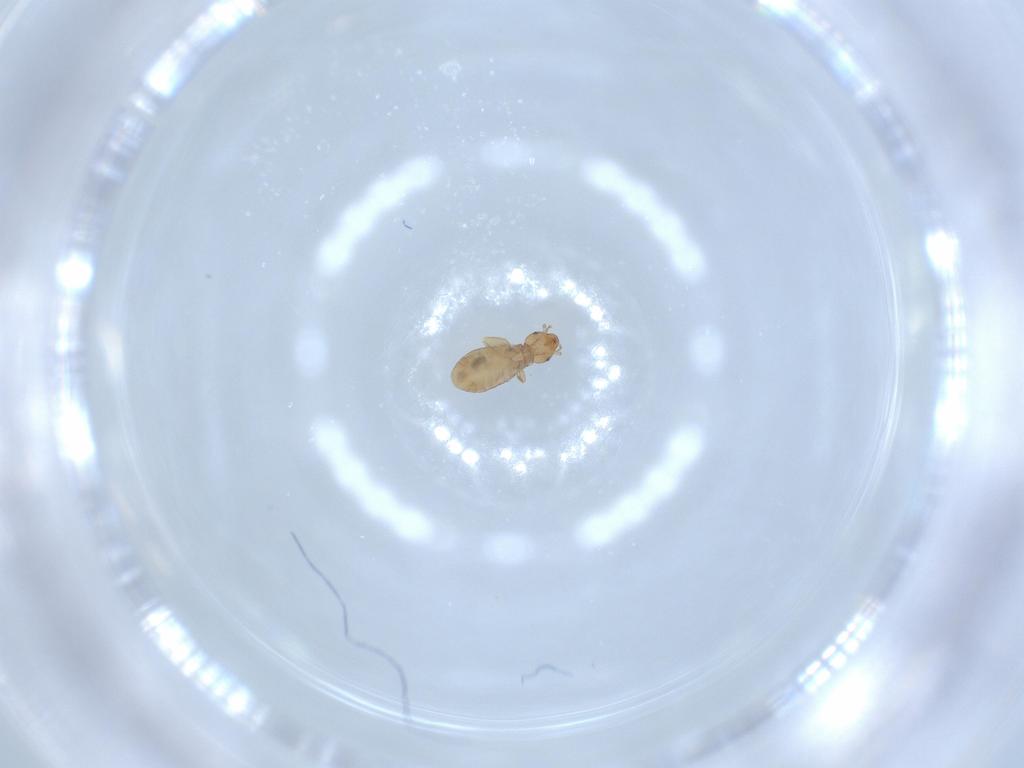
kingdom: Animalia
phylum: Arthropoda
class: Insecta
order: Psocodea
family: Liposcelididae
